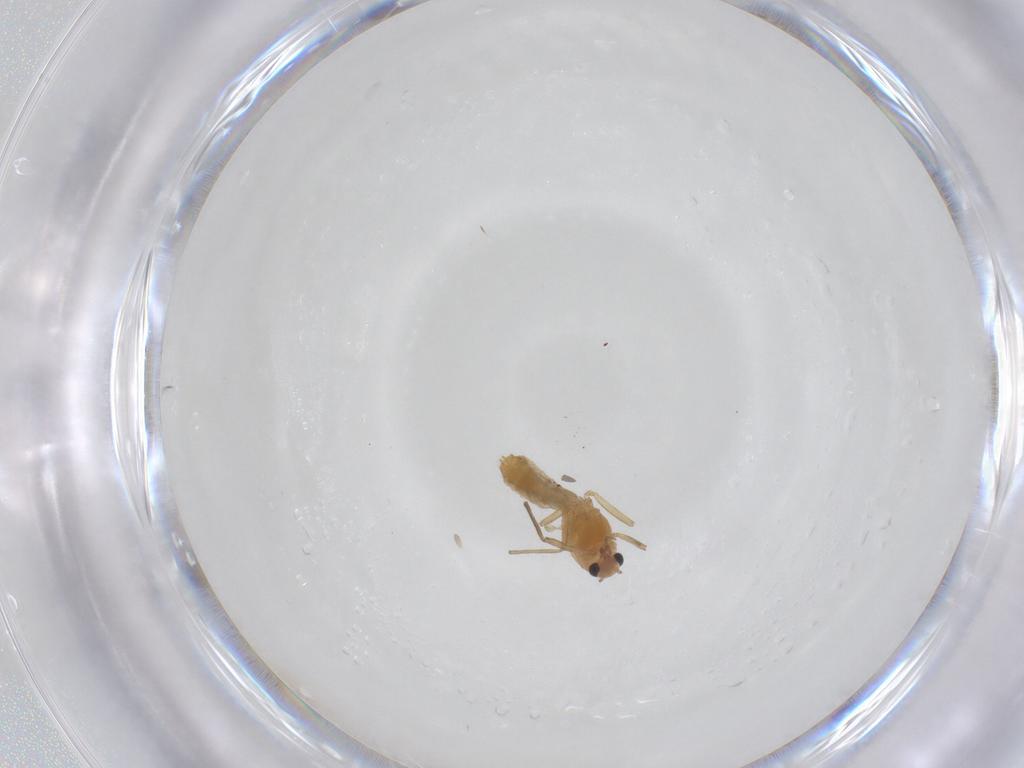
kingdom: Animalia
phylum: Arthropoda
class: Insecta
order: Diptera
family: Chironomidae
